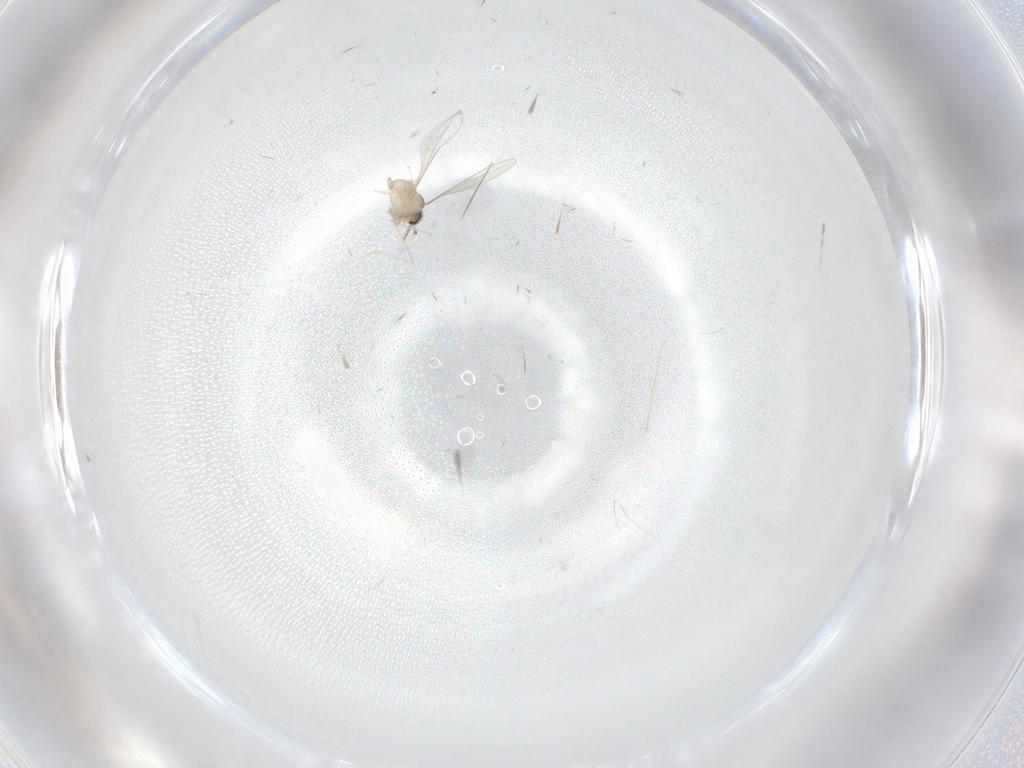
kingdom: Animalia
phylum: Arthropoda
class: Insecta
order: Diptera
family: Cecidomyiidae
